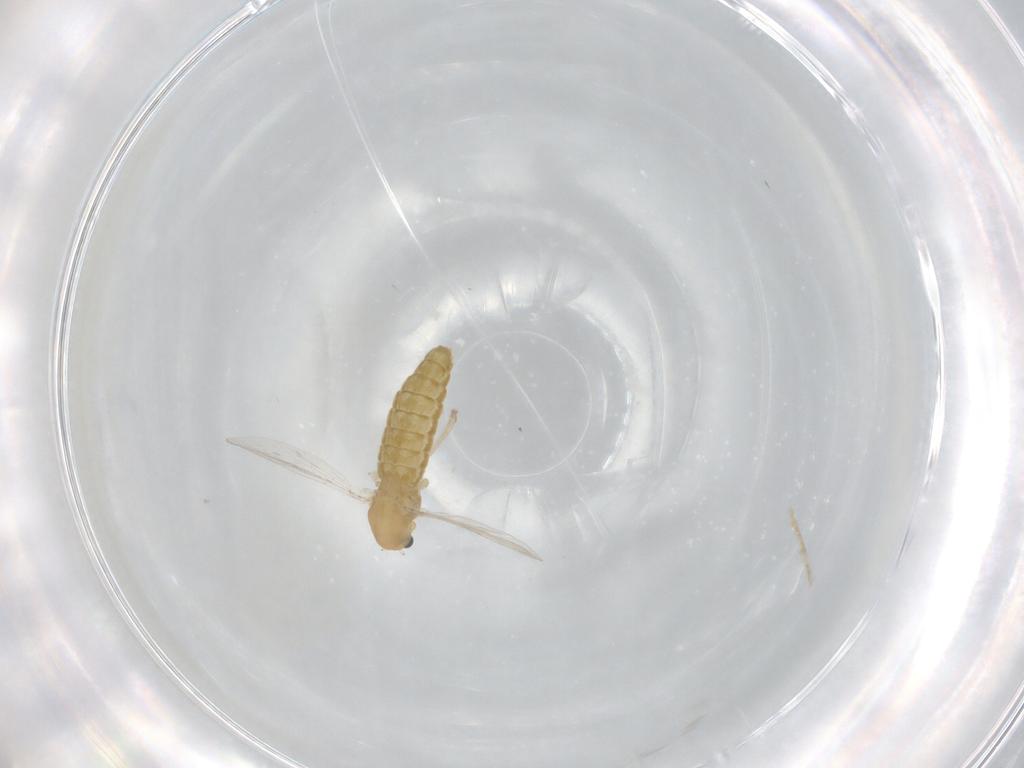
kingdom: Animalia
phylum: Arthropoda
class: Insecta
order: Diptera
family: Chironomidae
